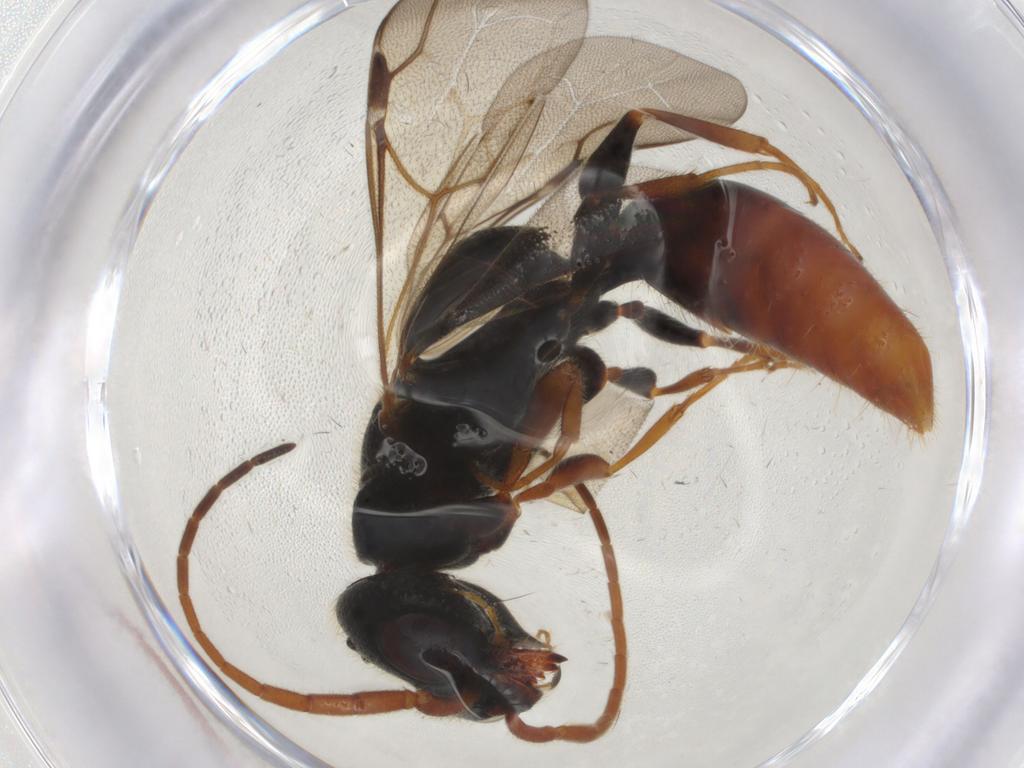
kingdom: Animalia
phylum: Arthropoda
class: Insecta
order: Hymenoptera
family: Bethylidae
